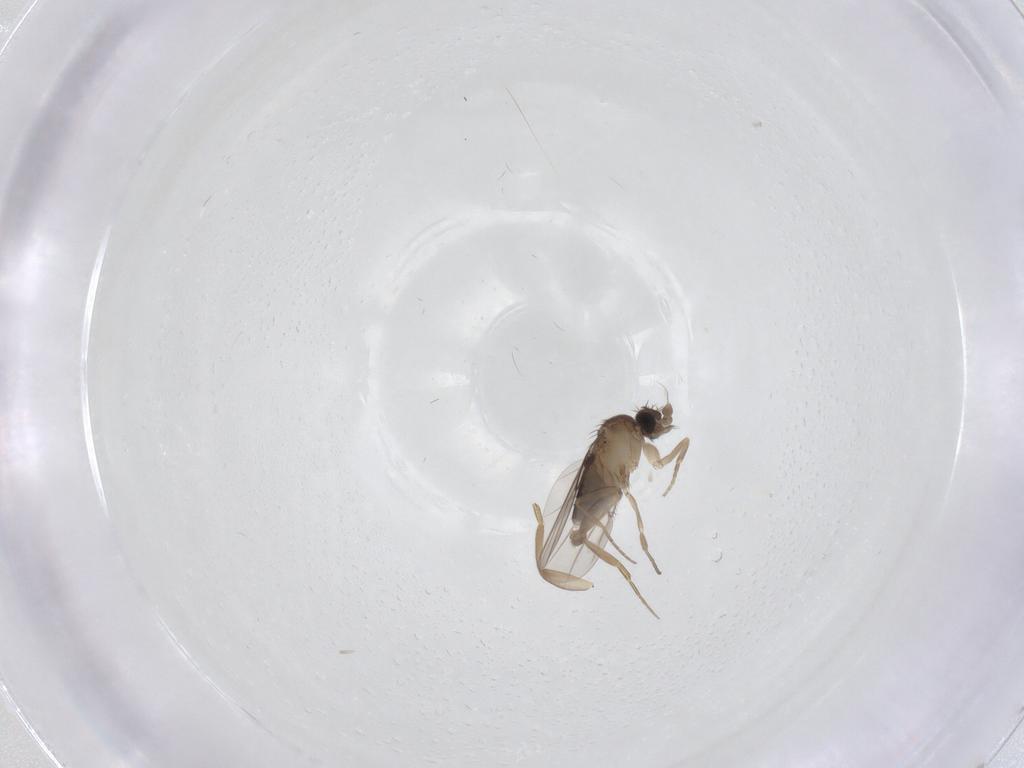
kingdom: Animalia
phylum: Arthropoda
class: Insecta
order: Diptera
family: Phoridae
